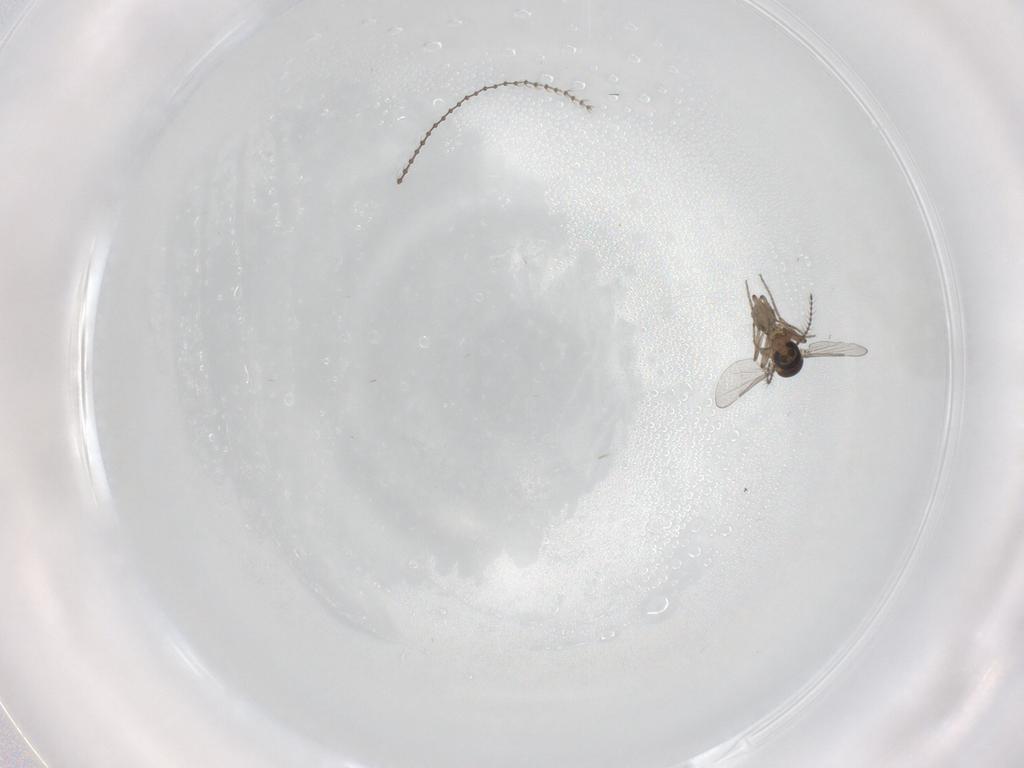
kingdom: Animalia
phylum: Arthropoda
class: Insecta
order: Diptera
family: Ceratopogonidae
